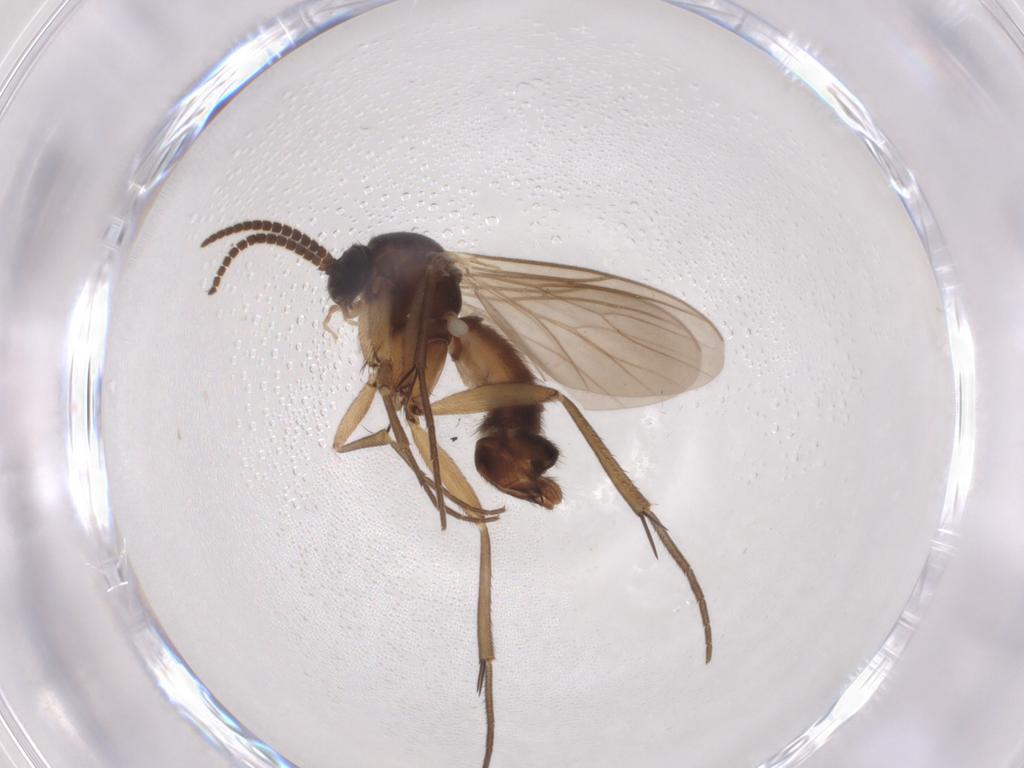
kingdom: Animalia
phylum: Arthropoda
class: Insecta
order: Diptera
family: Mycetophilidae
